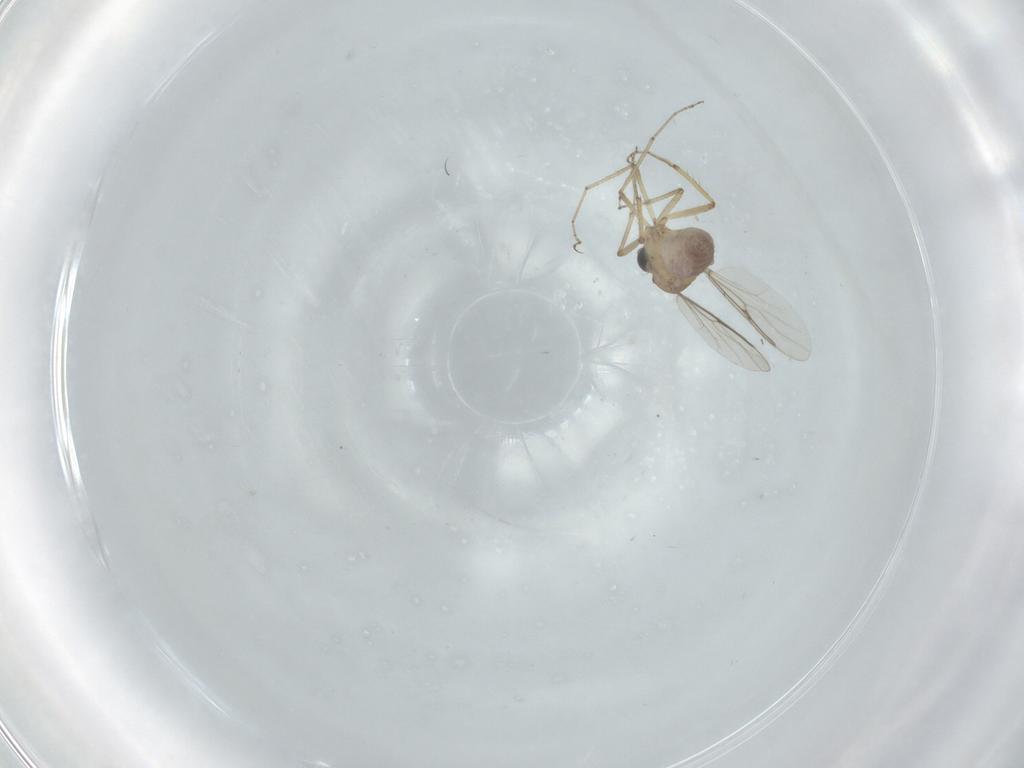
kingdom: Animalia
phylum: Arthropoda
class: Insecta
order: Diptera
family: Ceratopogonidae
